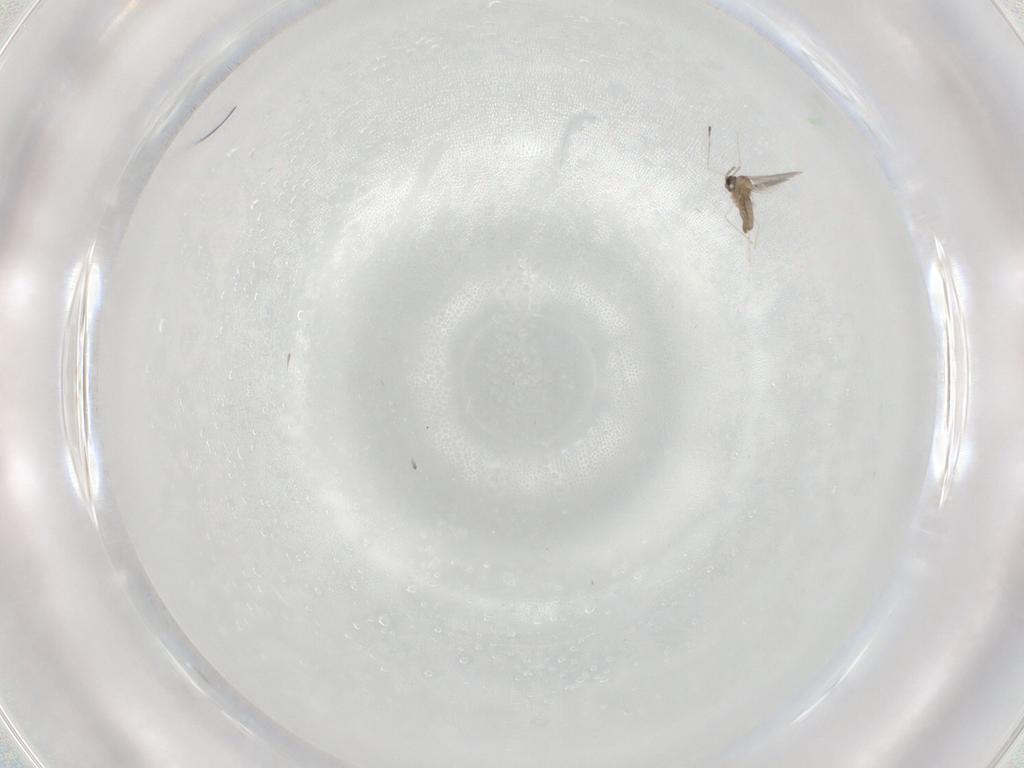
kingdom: Animalia
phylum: Arthropoda
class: Insecta
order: Diptera
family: Cecidomyiidae
